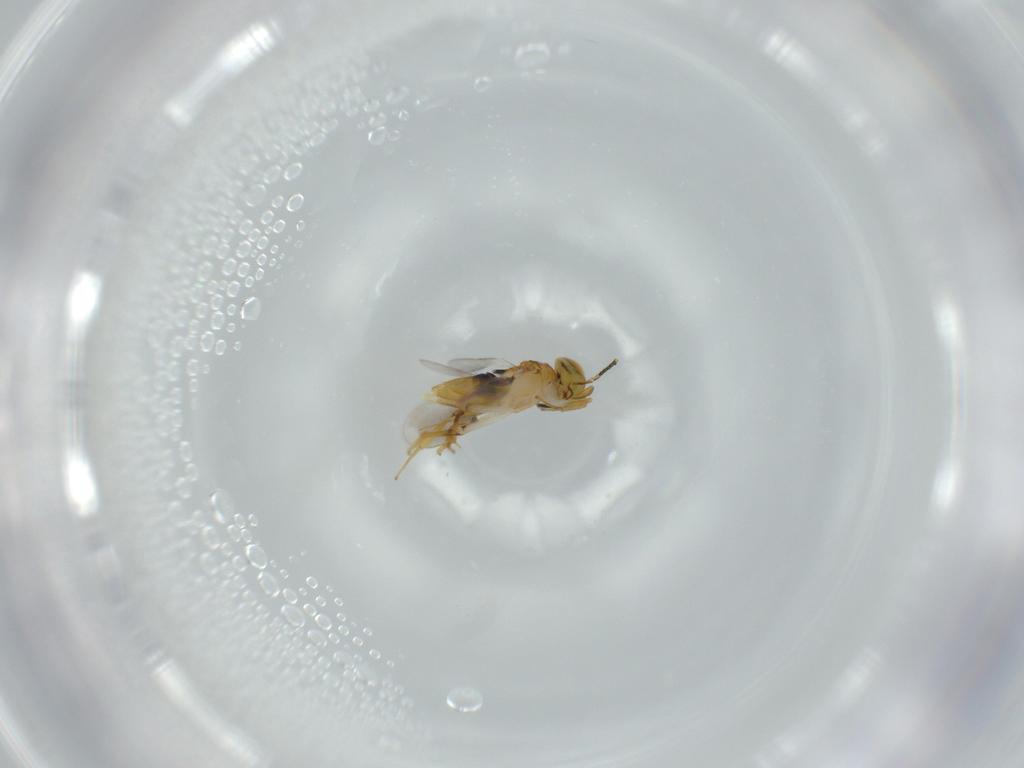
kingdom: Animalia
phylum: Arthropoda
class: Insecta
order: Hymenoptera
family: Encyrtidae
